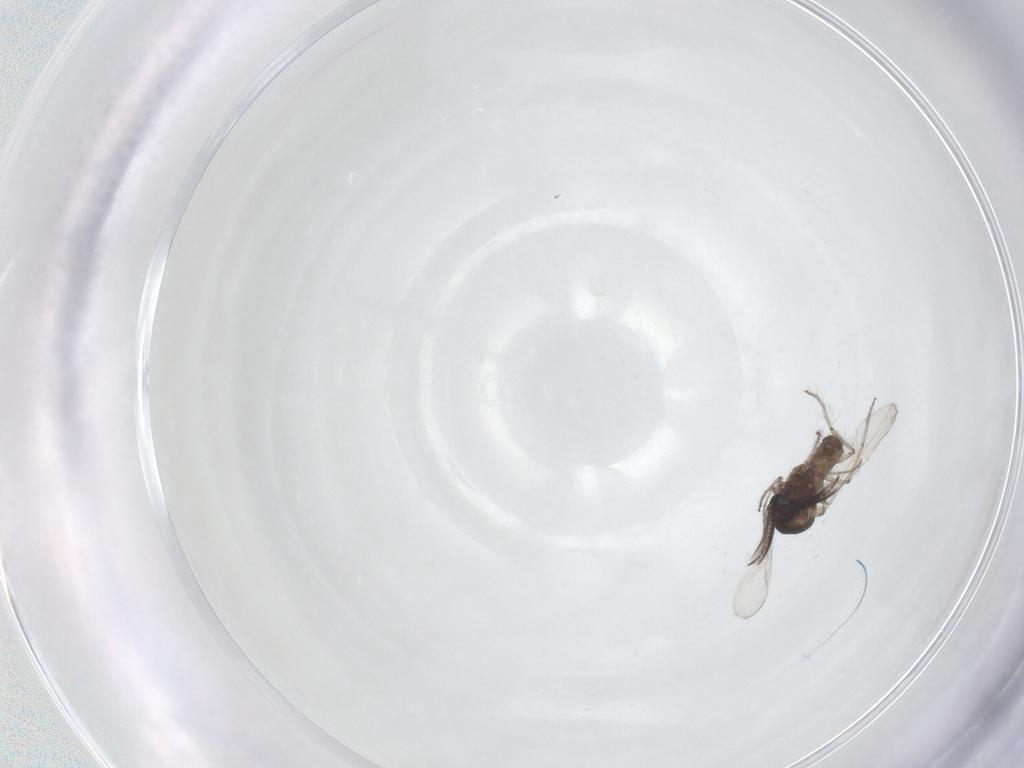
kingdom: Animalia
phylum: Arthropoda
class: Insecta
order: Diptera
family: Ceratopogonidae
